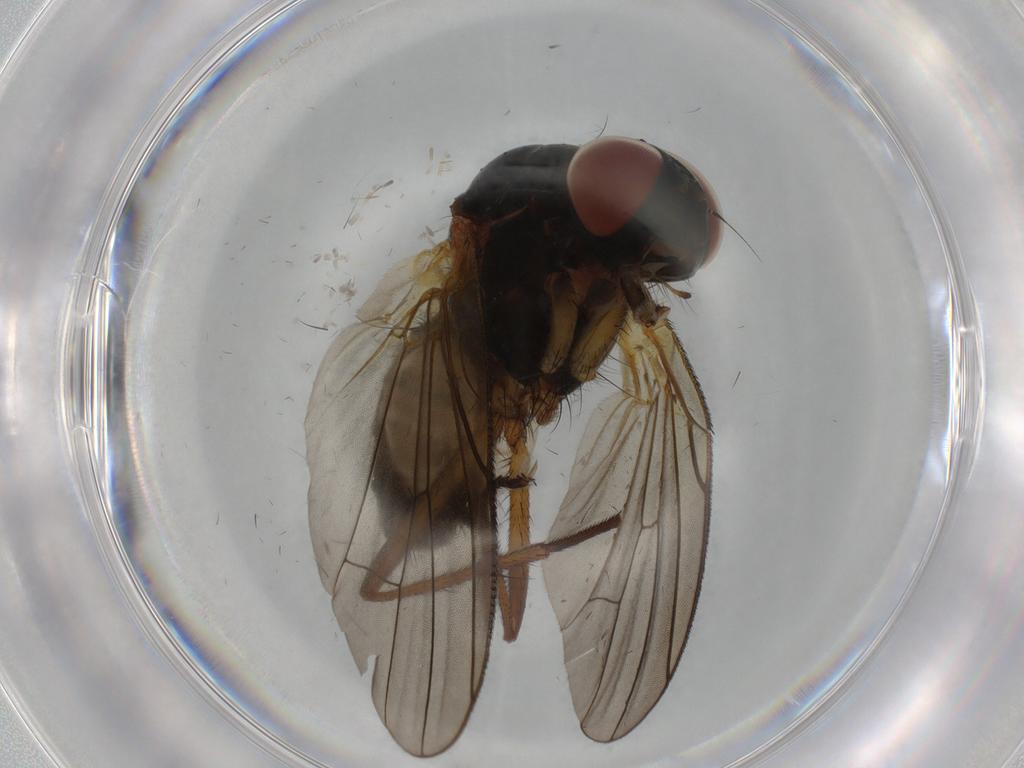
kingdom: Animalia
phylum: Arthropoda
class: Insecta
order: Diptera
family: Anthomyiidae
